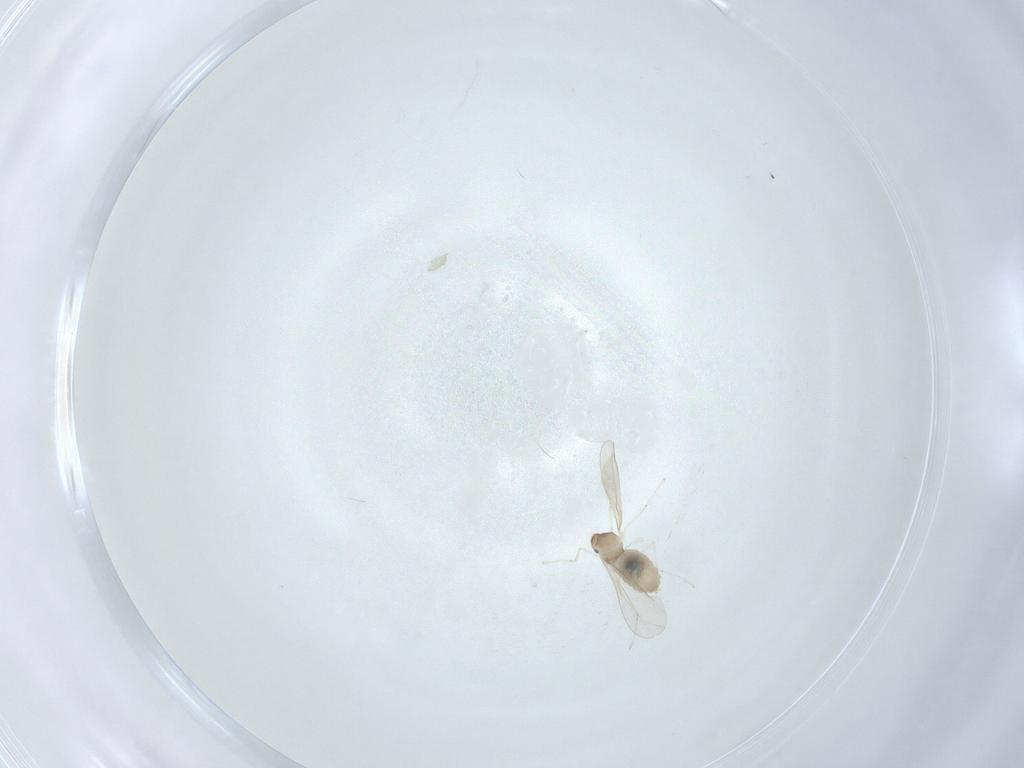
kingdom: Animalia
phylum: Arthropoda
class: Insecta
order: Diptera
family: Cecidomyiidae
